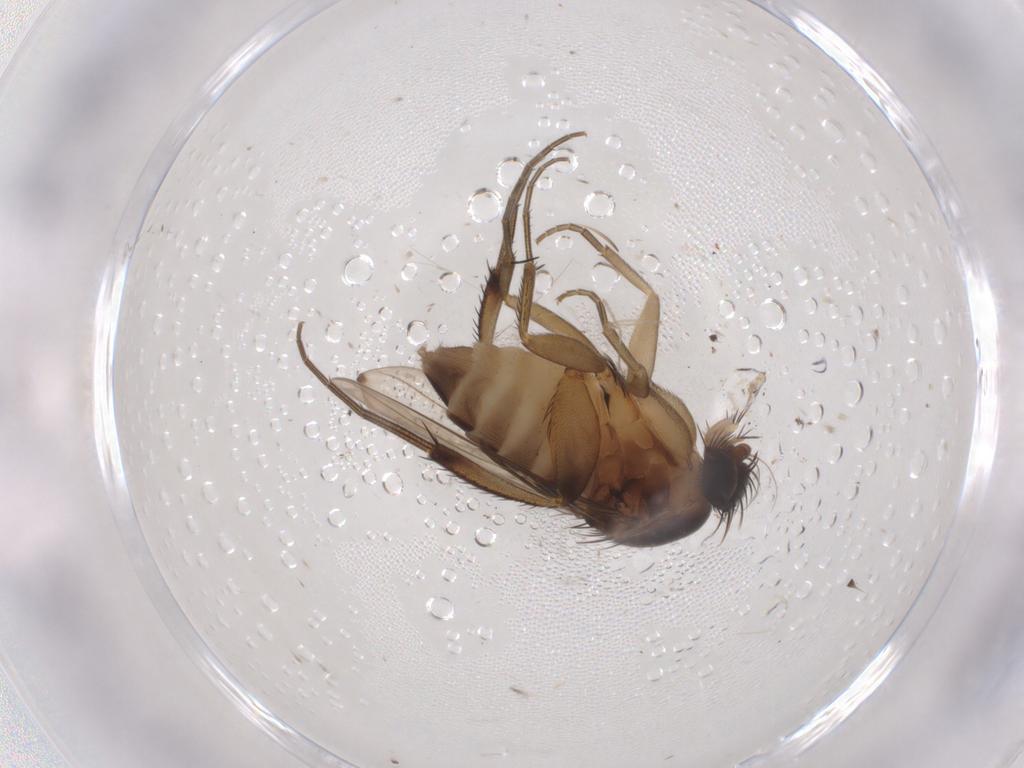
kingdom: Animalia
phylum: Arthropoda
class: Insecta
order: Diptera
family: Phoridae
